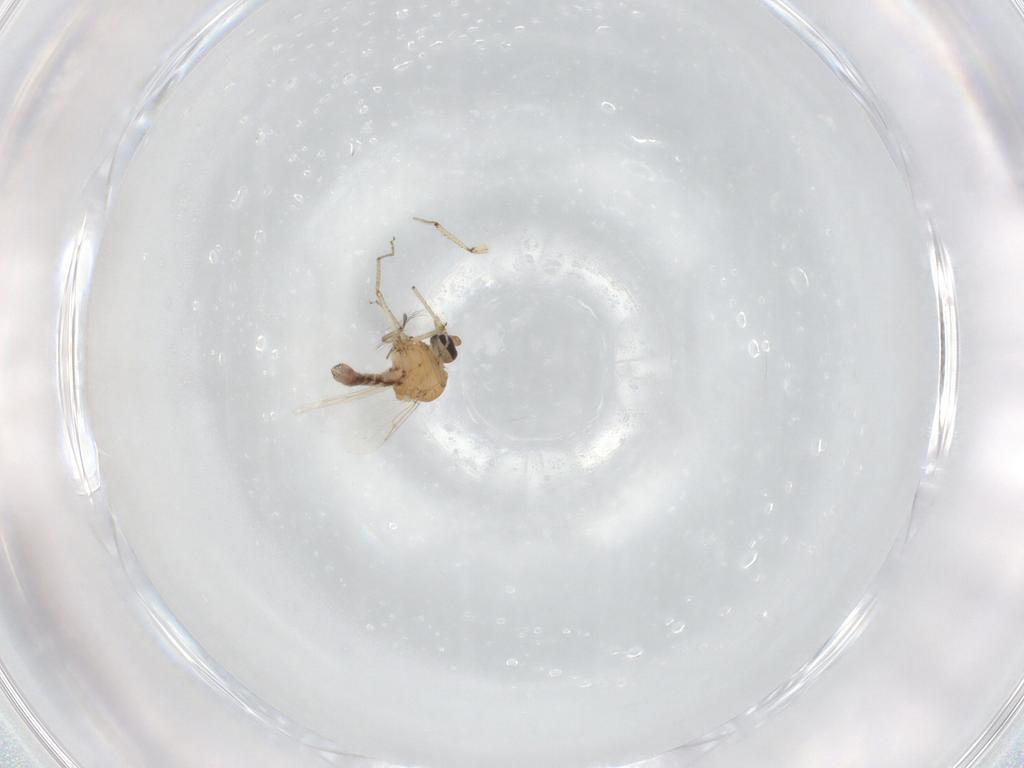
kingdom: Animalia
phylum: Arthropoda
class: Insecta
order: Diptera
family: Ceratopogonidae
